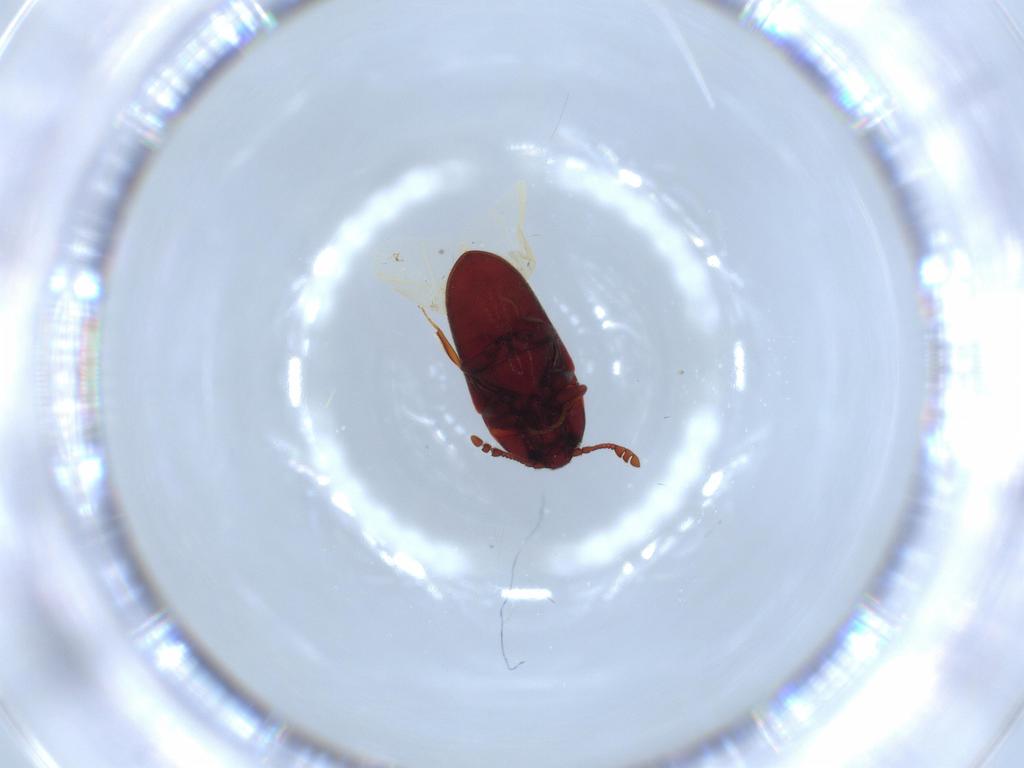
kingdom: Animalia
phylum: Arthropoda
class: Insecta
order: Coleoptera
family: Throscidae
